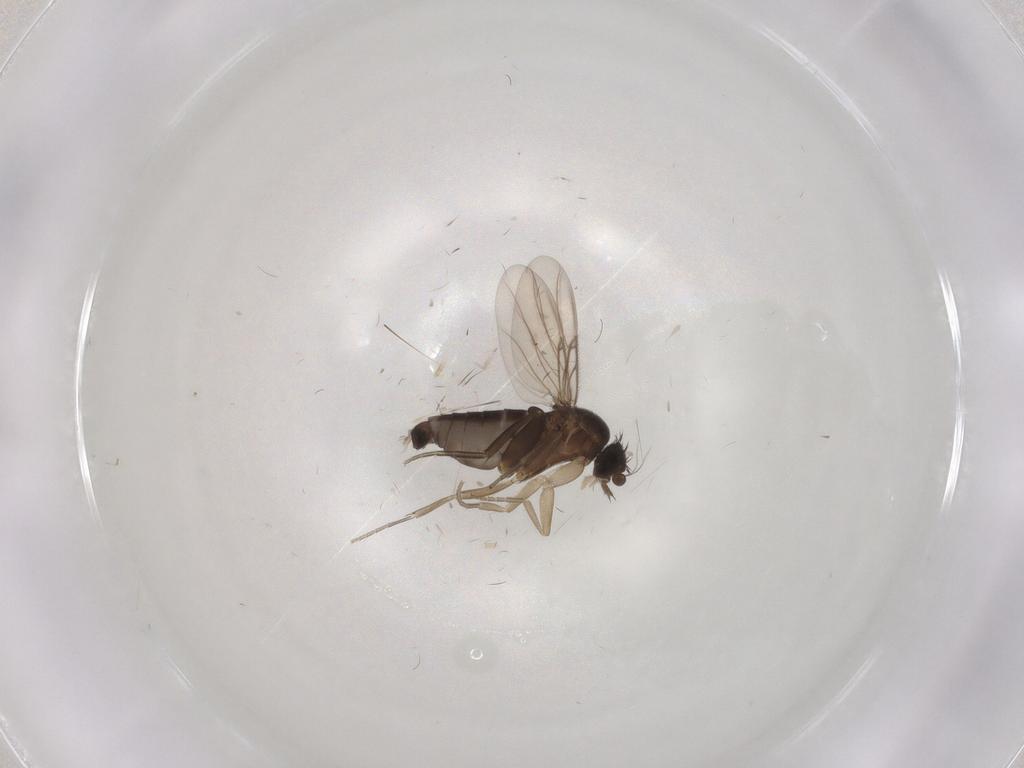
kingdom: Animalia
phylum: Arthropoda
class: Insecta
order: Diptera
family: Phoridae
